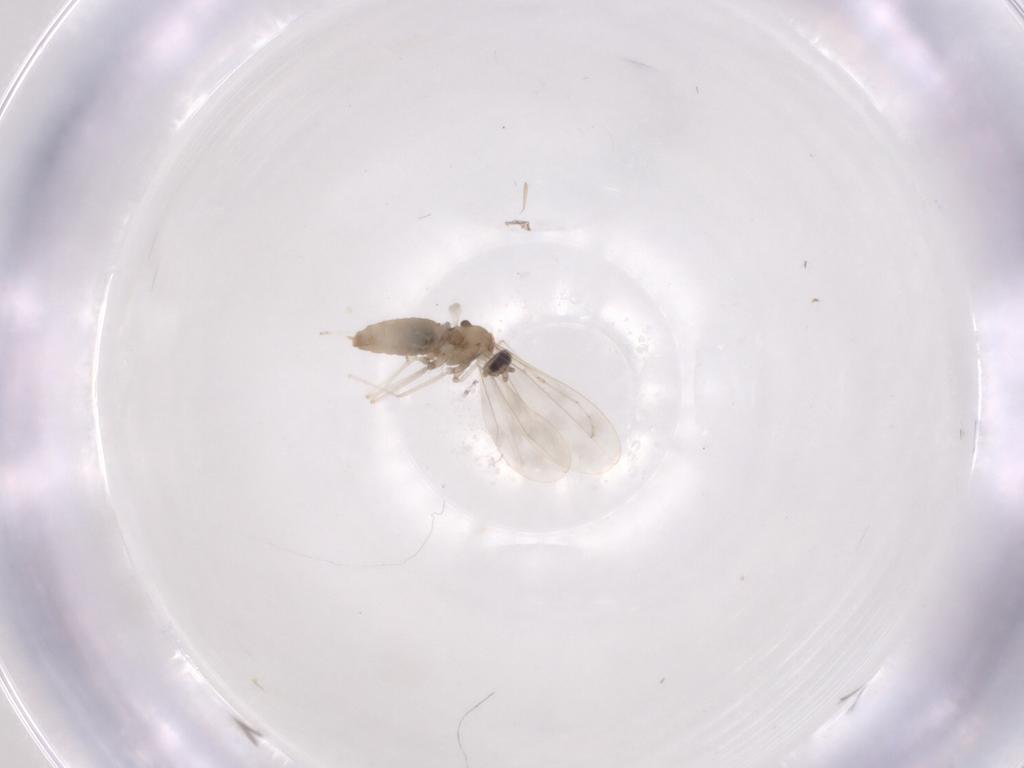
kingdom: Animalia
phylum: Arthropoda
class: Insecta
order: Diptera
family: Cecidomyiidae
